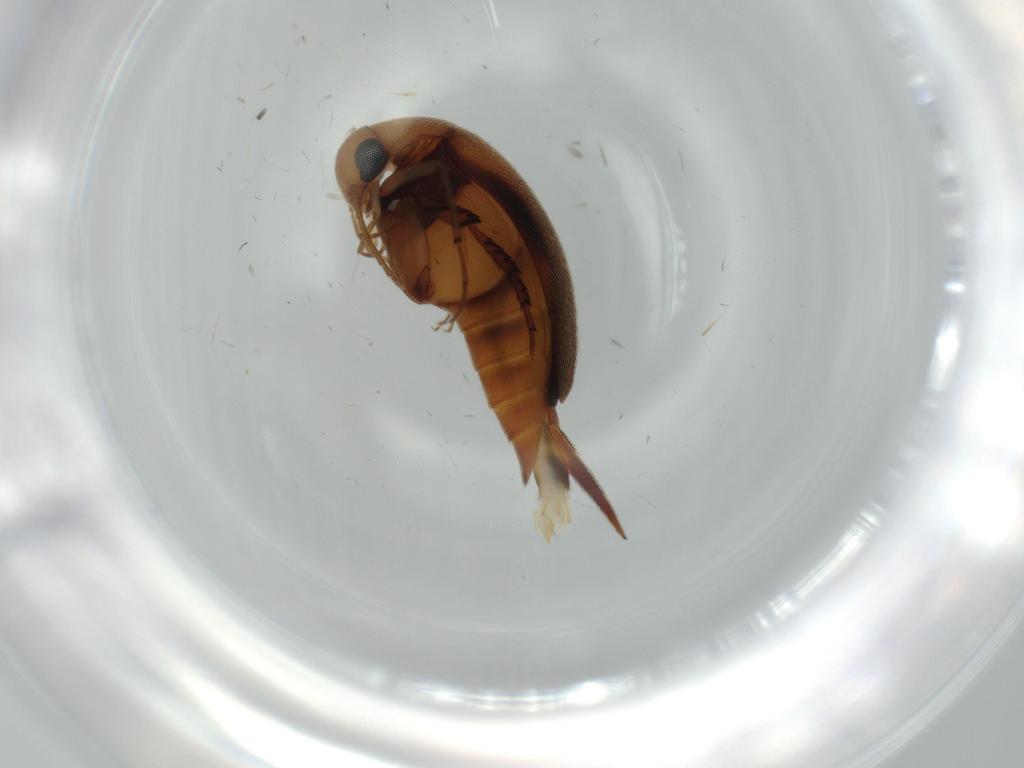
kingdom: Animalia
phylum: Arthropoda
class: Insecta
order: Coleoptera
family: Mordellidae
